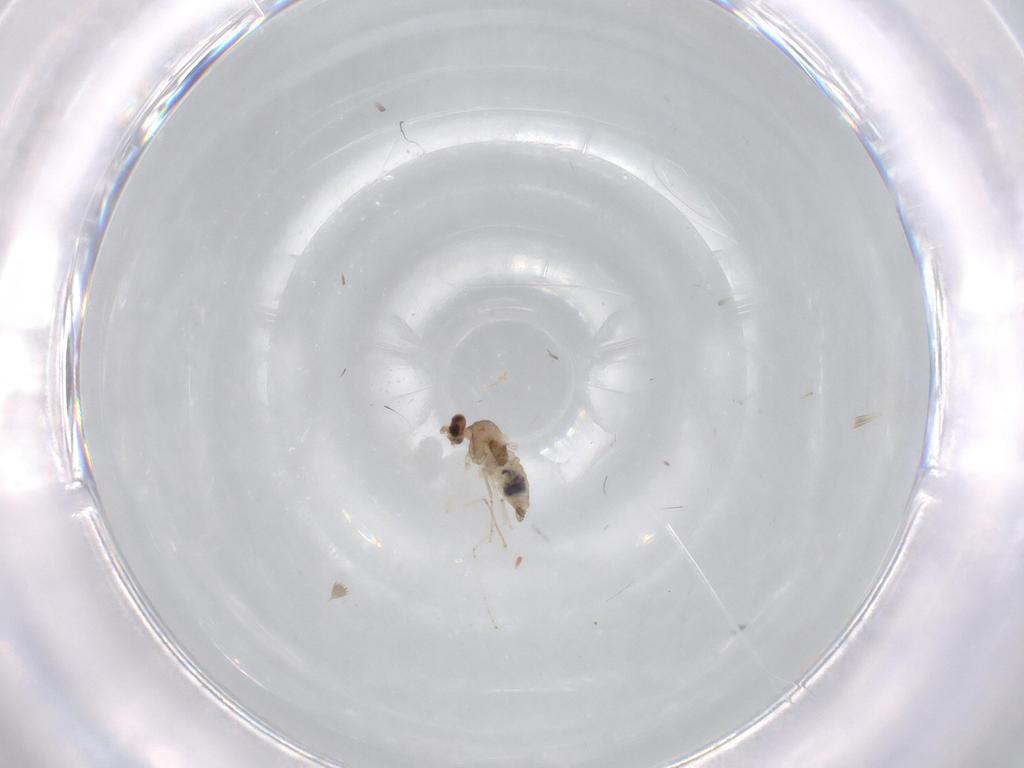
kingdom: Animalia
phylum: Arthropoda
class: Insecta
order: Diptera
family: Cecidomyiidae
